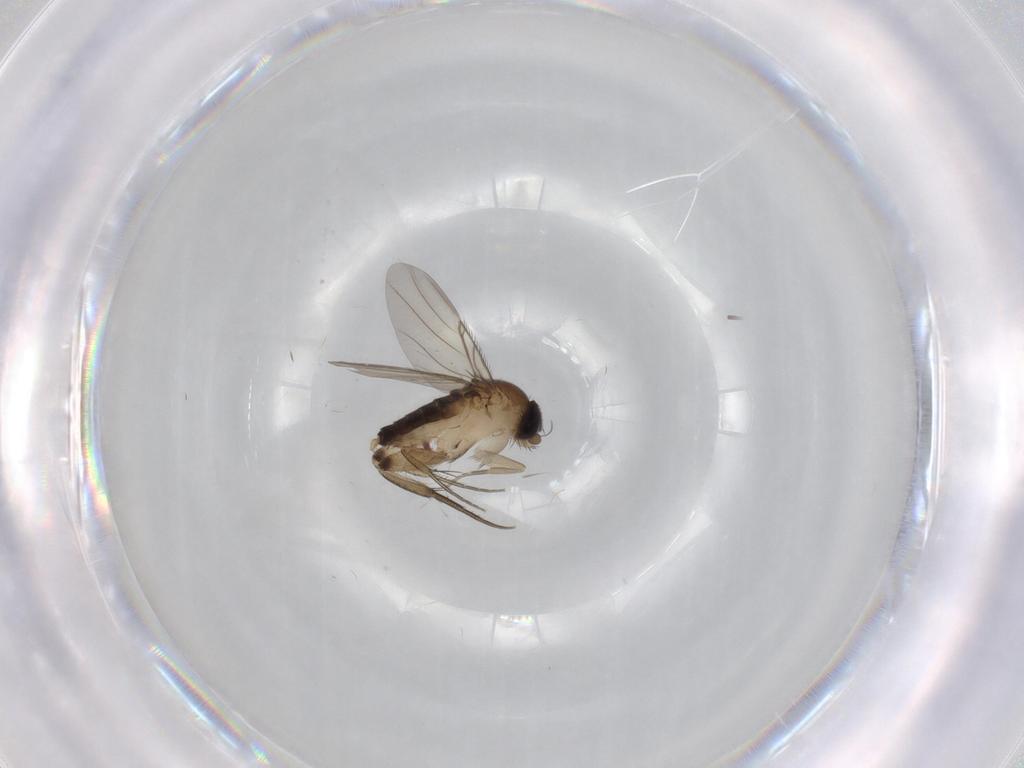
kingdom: Animalia
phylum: Arthropoda
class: Insecta
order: Diptera
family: Phoridae
